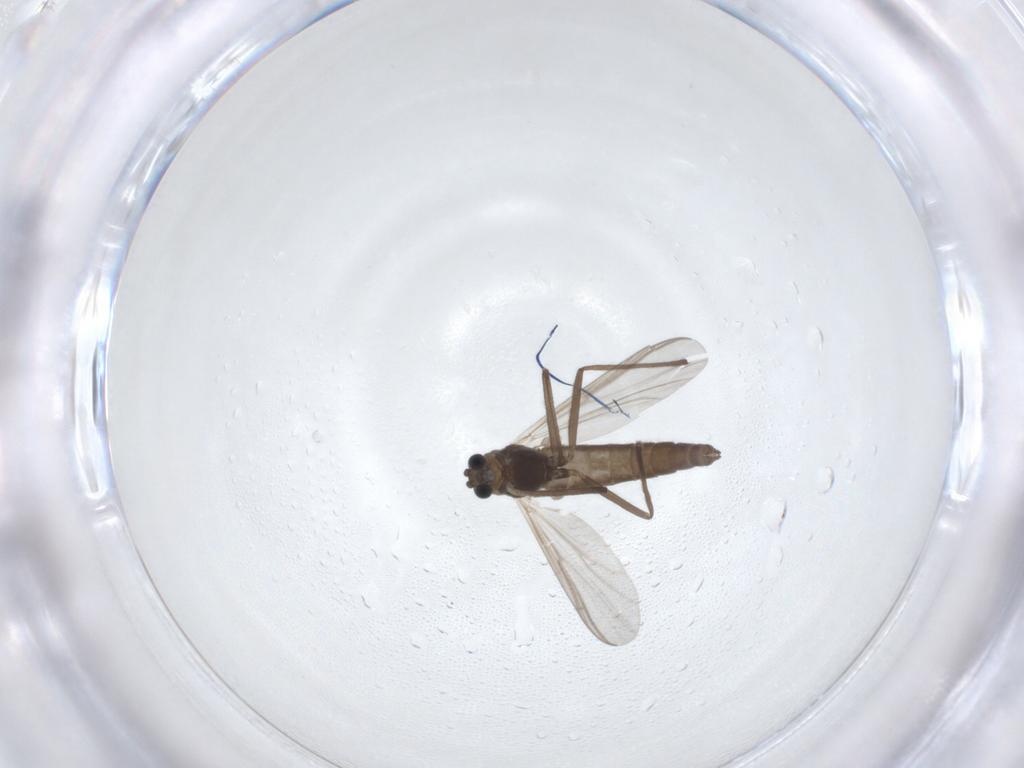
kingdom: Animalia
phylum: Arthropoda
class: Insecta
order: Diptera
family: Chironomidae
